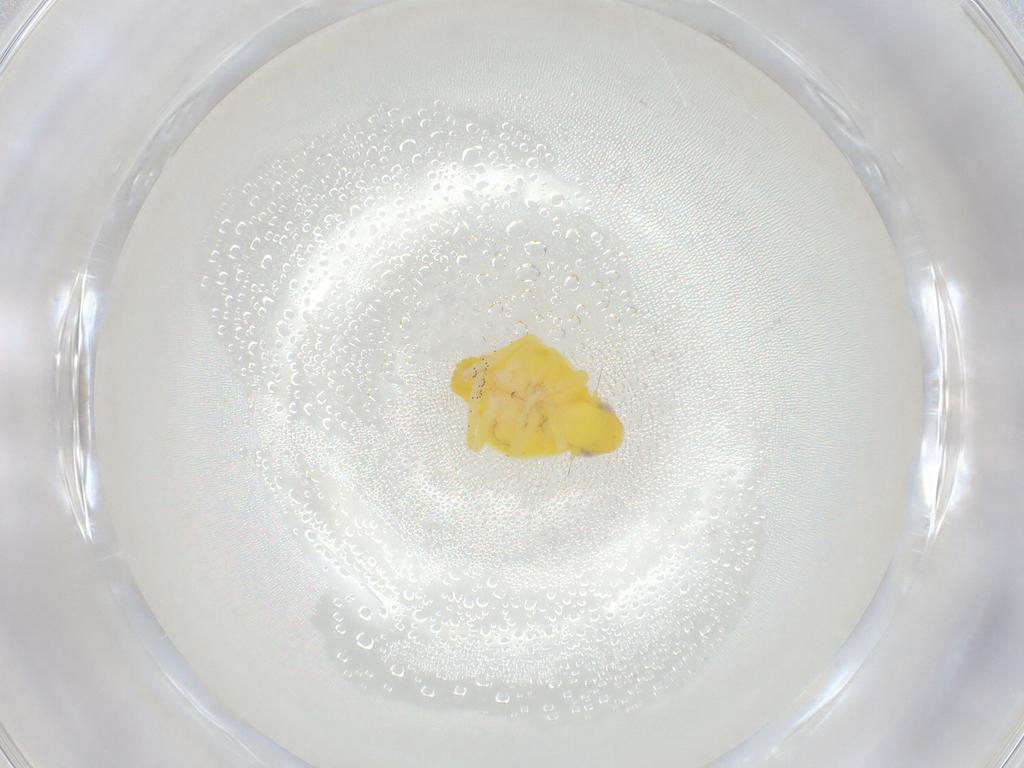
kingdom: Animalia
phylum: Arthropoda
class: Insecta
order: Hemiptera
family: Tropiduchidae
